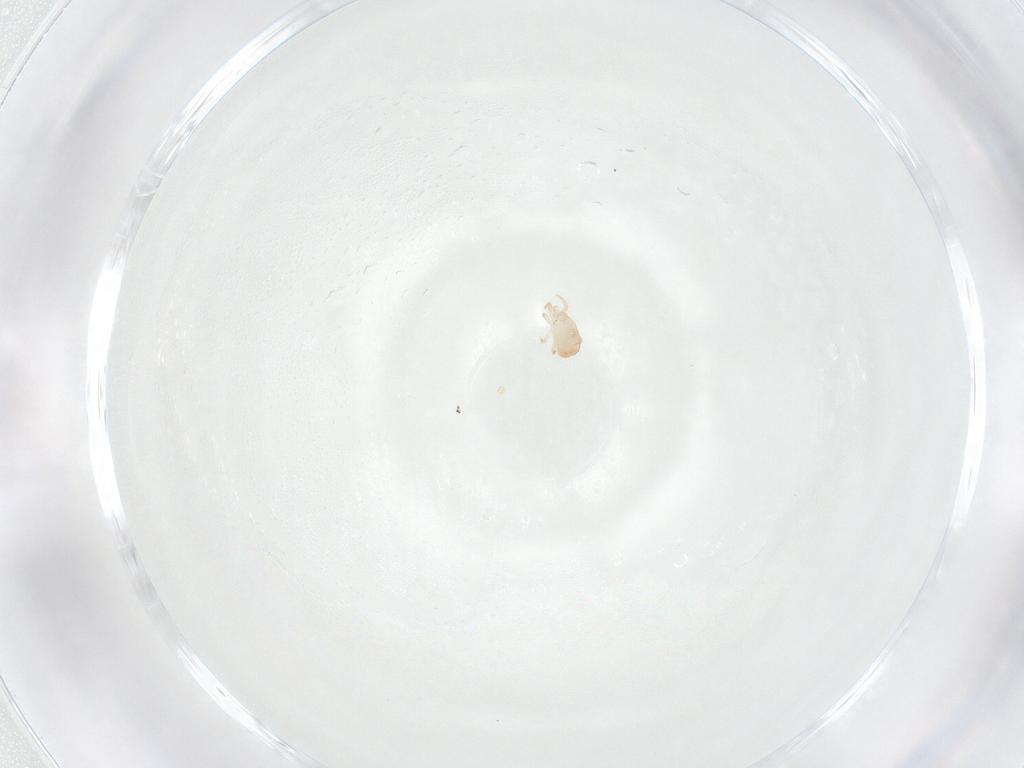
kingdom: Animalia
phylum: Arthropoda
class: Arachnida
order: Mesostigmata
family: Zerconidae
